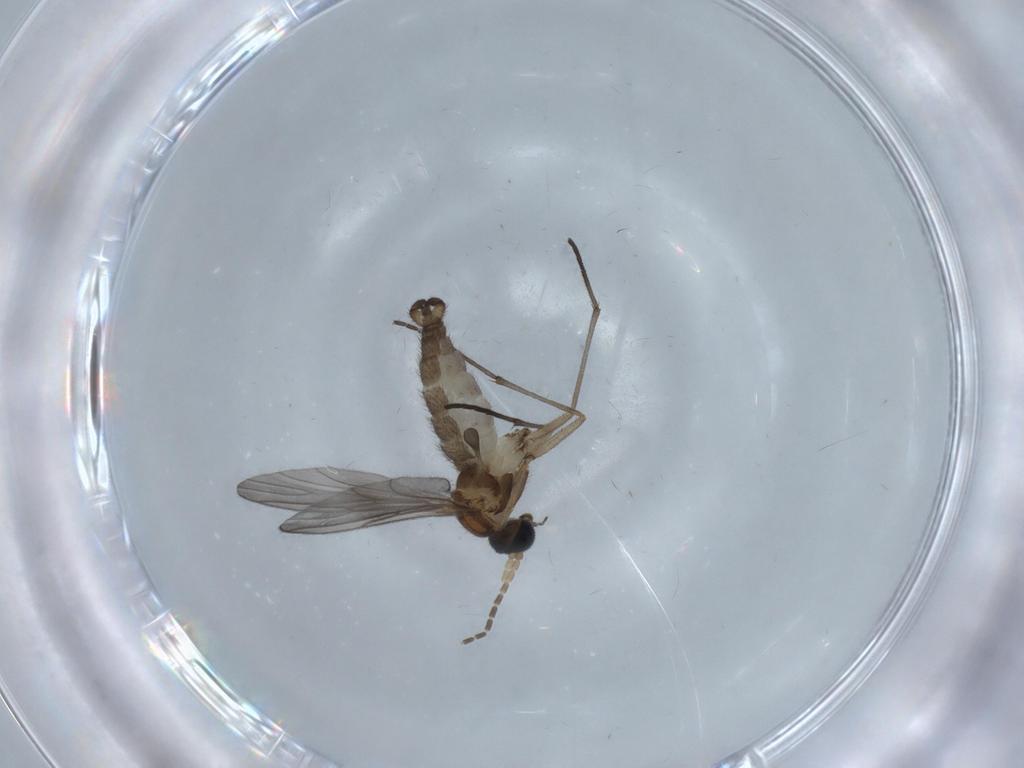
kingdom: Animalia
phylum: Arthropoda
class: Insecta
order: Diptera
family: Sciaridae
